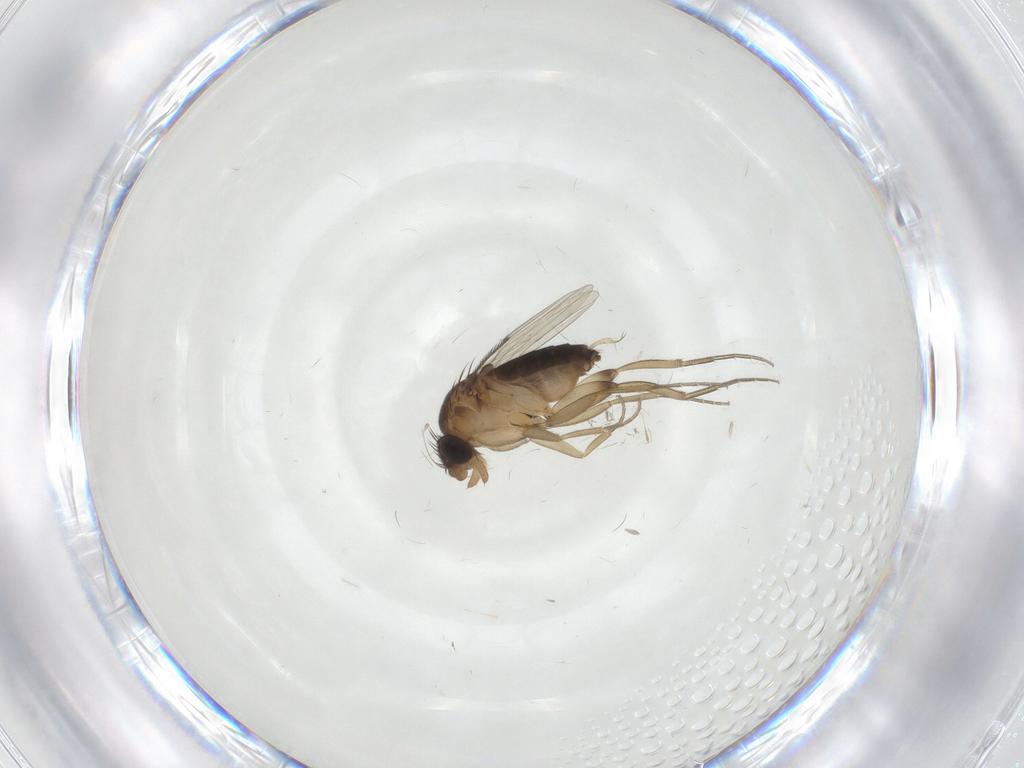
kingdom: Animalia
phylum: Arthropoda
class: Insecta
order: Diptera
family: Phoridae
